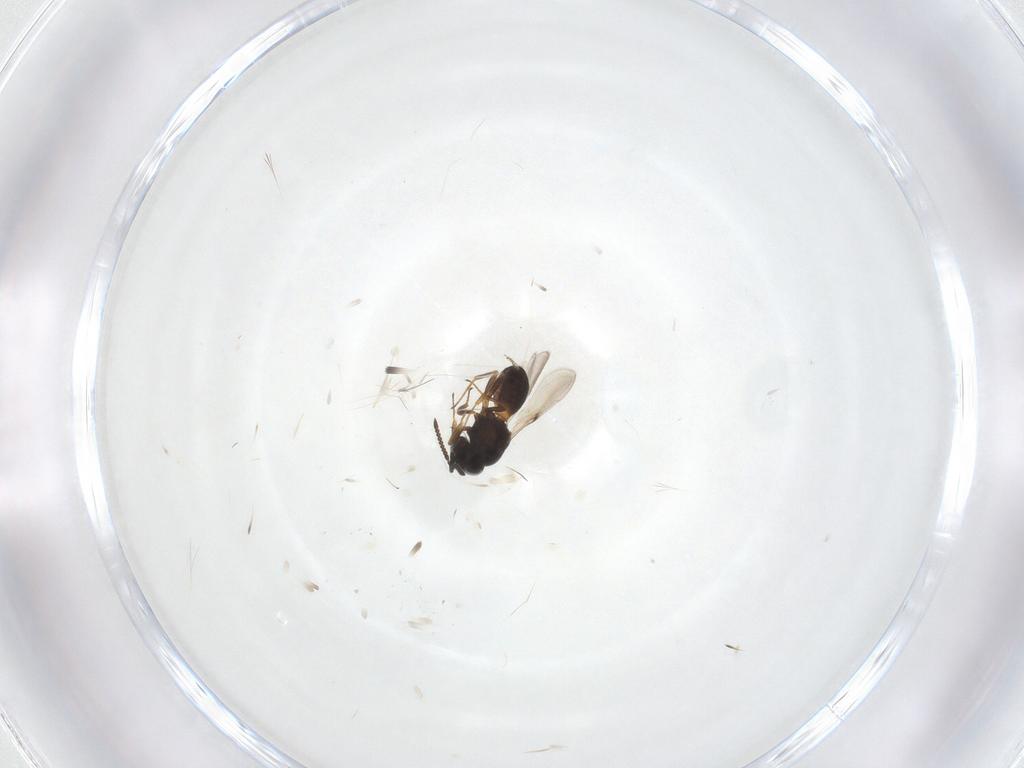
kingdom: Animalia
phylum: Arthropoda
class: Arachnida
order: Araneae
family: Pholcidae
